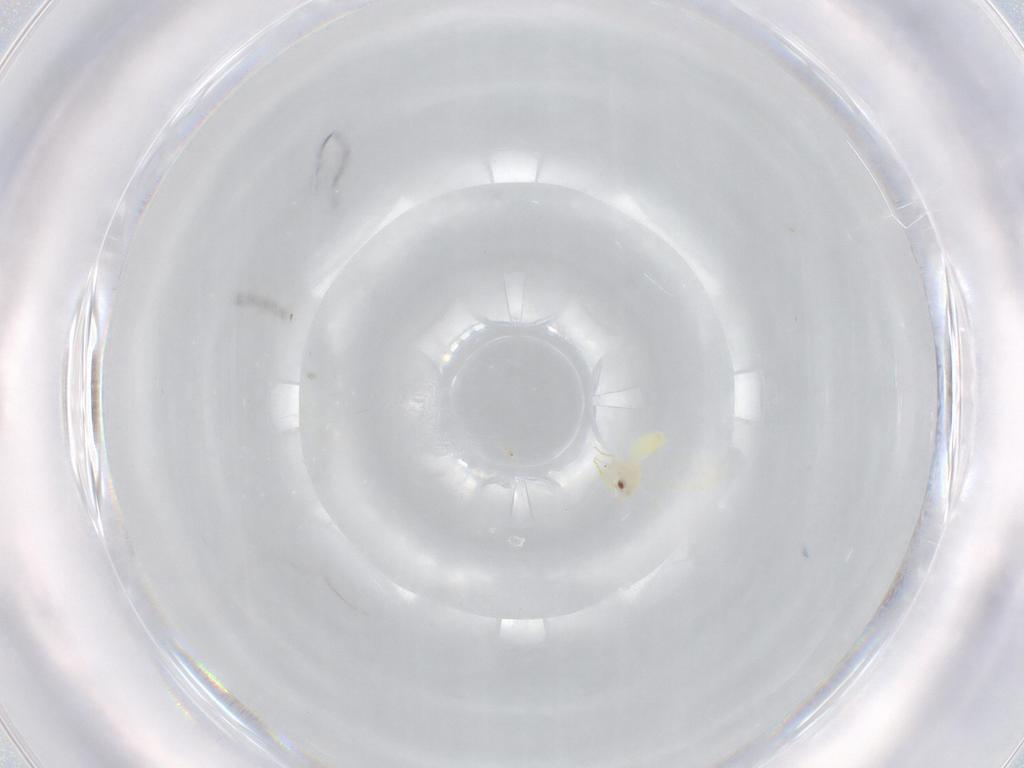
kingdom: Animalia
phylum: Arthropoda
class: Insecta
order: Hemiptera
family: Aleyrodidae
